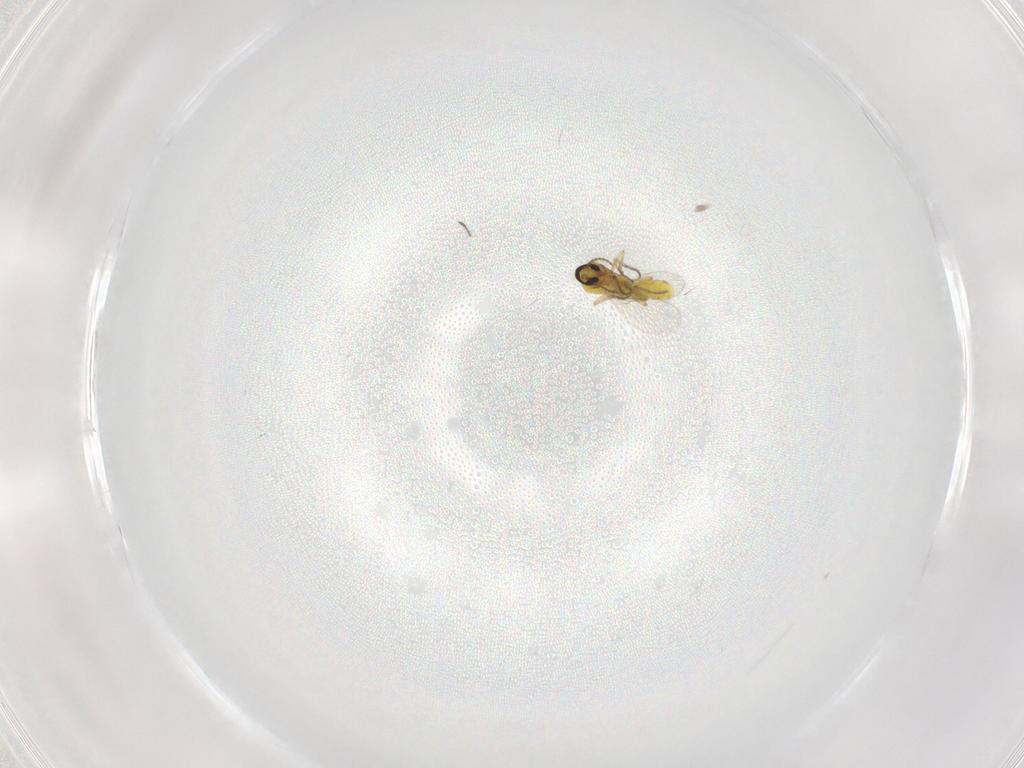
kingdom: Animalia
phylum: Arthropoda
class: Insecta
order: Diptera
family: Ceratopogonidae
